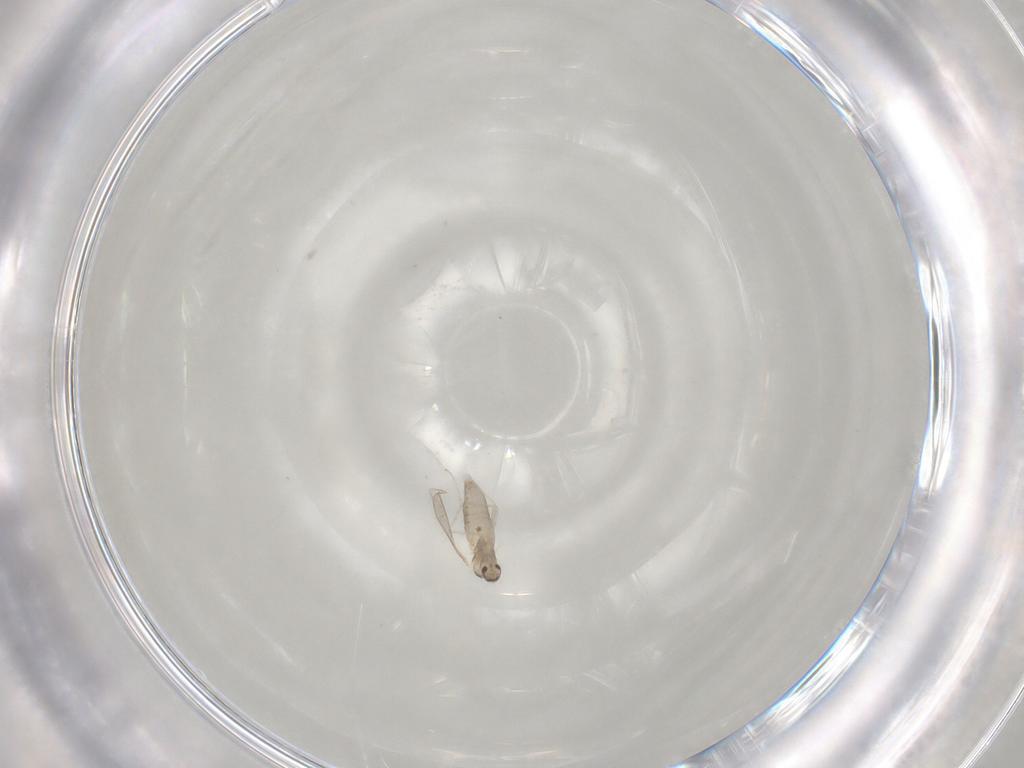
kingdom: Animalia
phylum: Arthropoda
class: Insecta
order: Diptera
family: Cecidomyiidae
